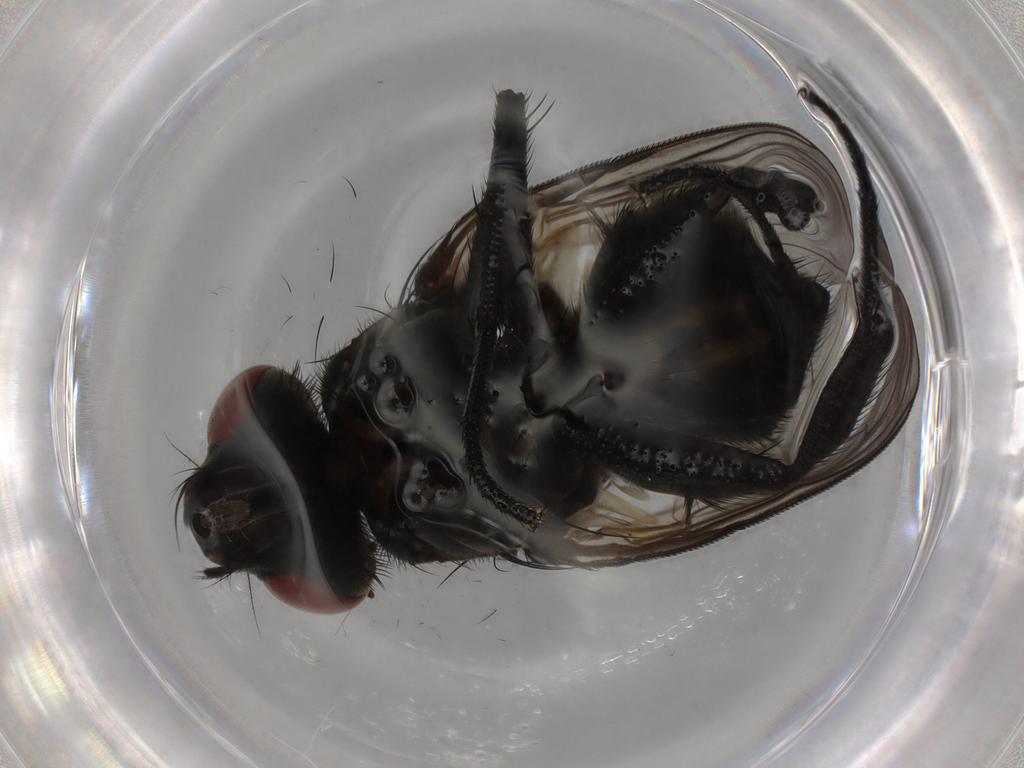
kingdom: Animalia
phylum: Arthropoda
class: Insecta
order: Diptera
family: Muscidae
